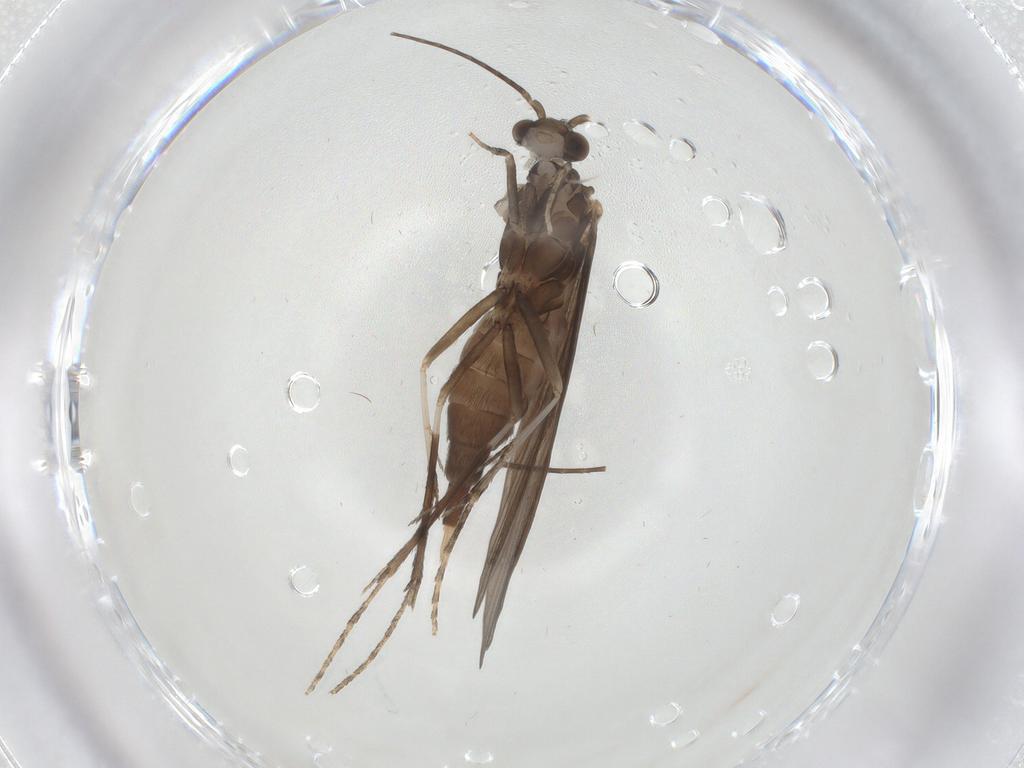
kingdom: Animalia
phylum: Arthropoda
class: Insecta
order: Trichoptera
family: Xiphocentronidae
